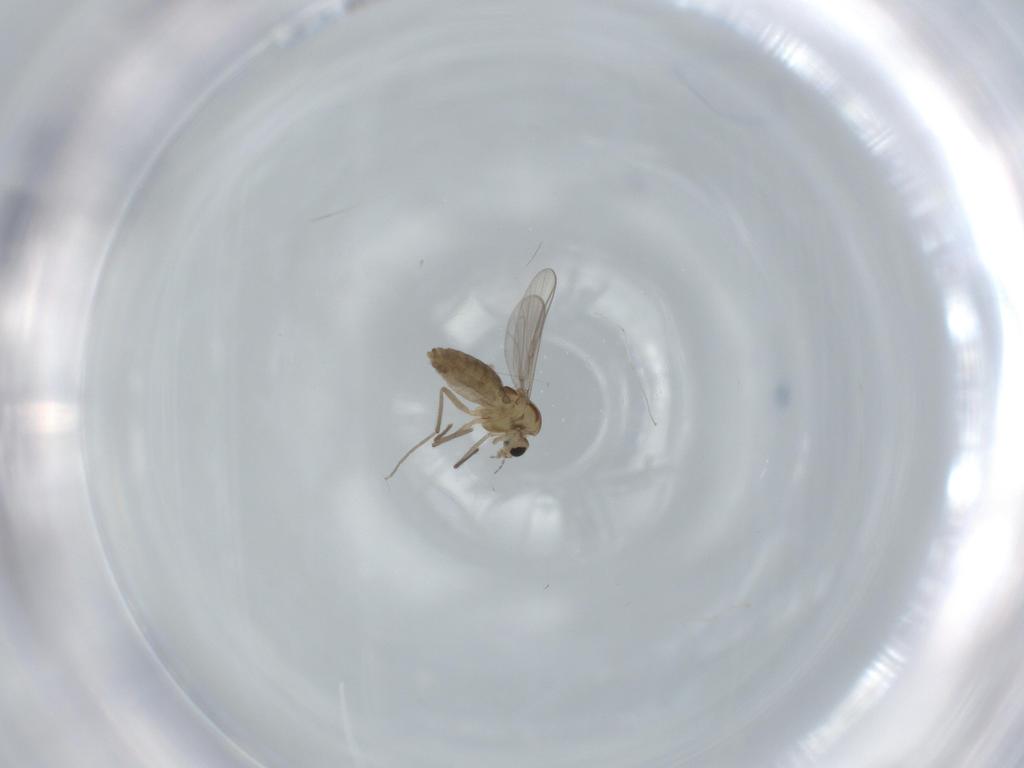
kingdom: Animalia
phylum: Arthropoda
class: Insecta
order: Diptera
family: Chironomidae
